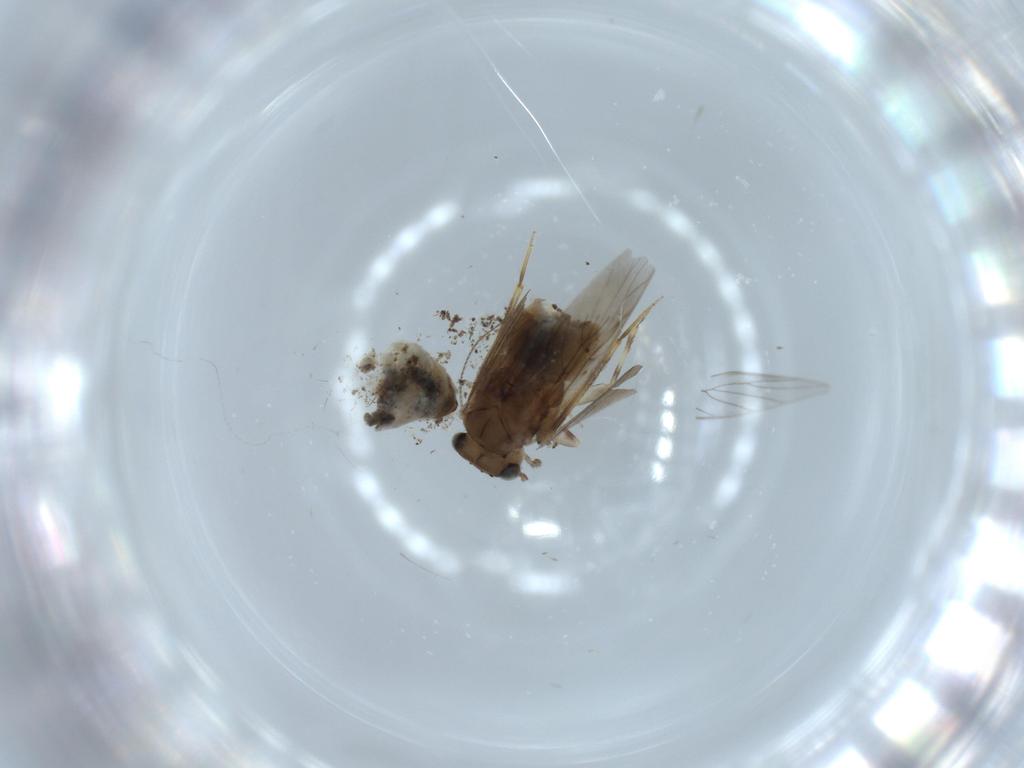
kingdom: Animalia
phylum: Arthropoda
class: Insecta
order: Psocodea
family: Lepidopsocidae
